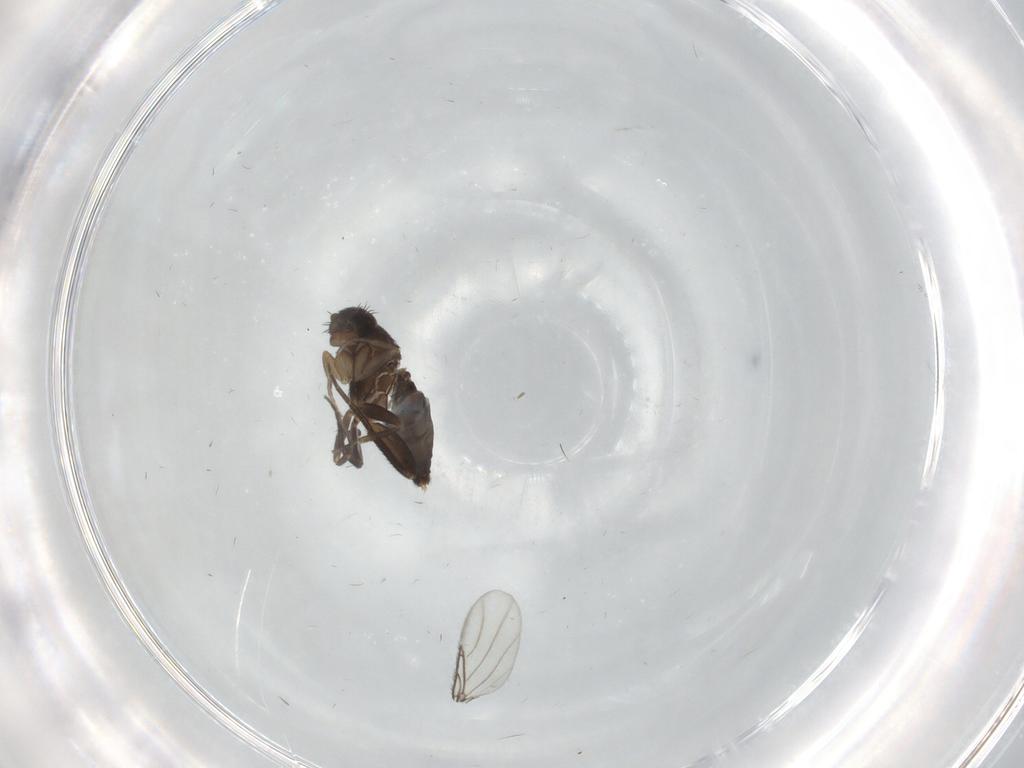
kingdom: Animalia
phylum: Arthropoda
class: Insecta
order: Diptera
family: Phoridae
